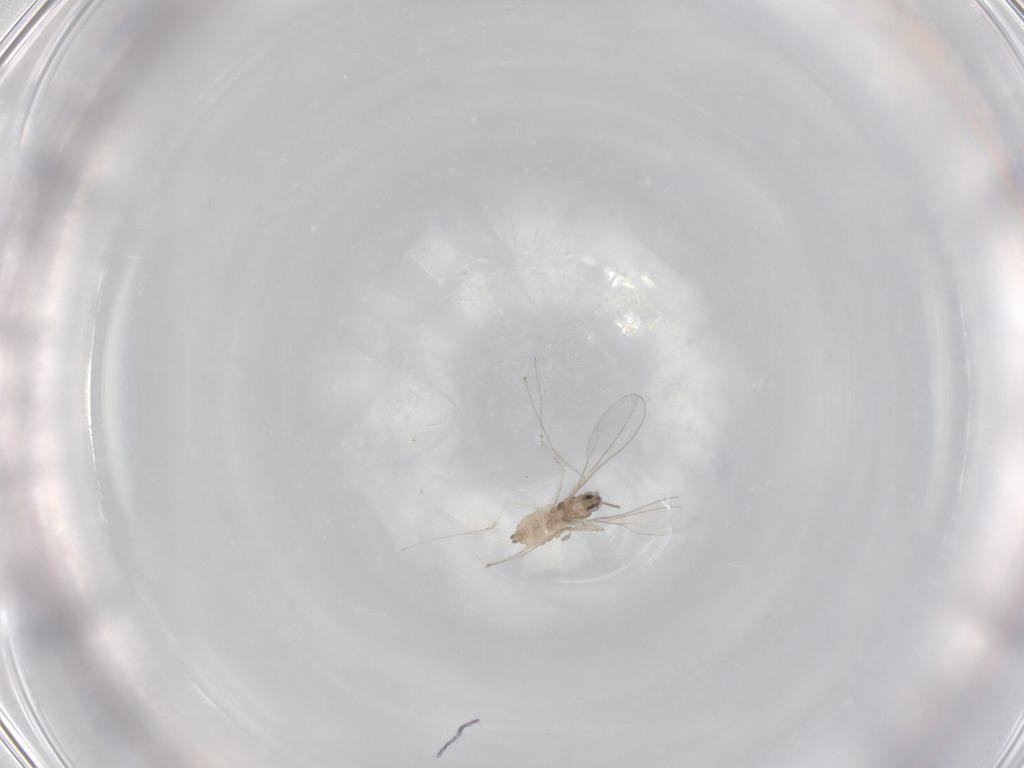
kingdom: Animalia
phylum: Arthropoda
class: Insecta
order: Diptera
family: Cecidomyiidae
